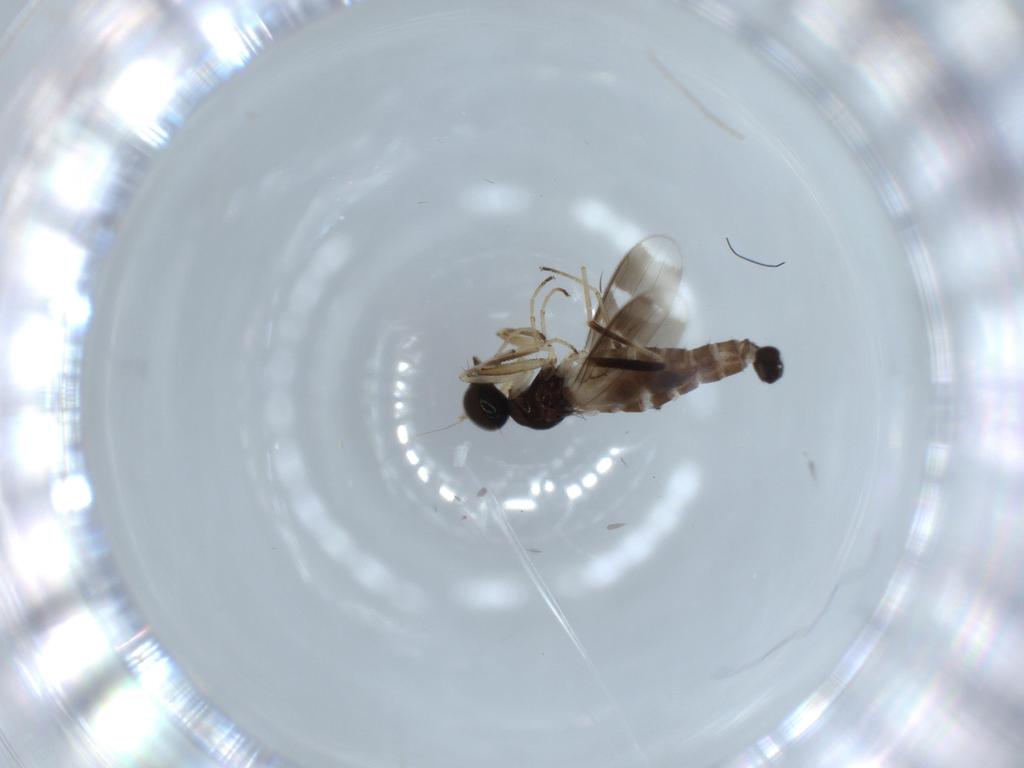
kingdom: Animalia
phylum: Arthropoda
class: Insecta
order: Diptera
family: Hybotidae
